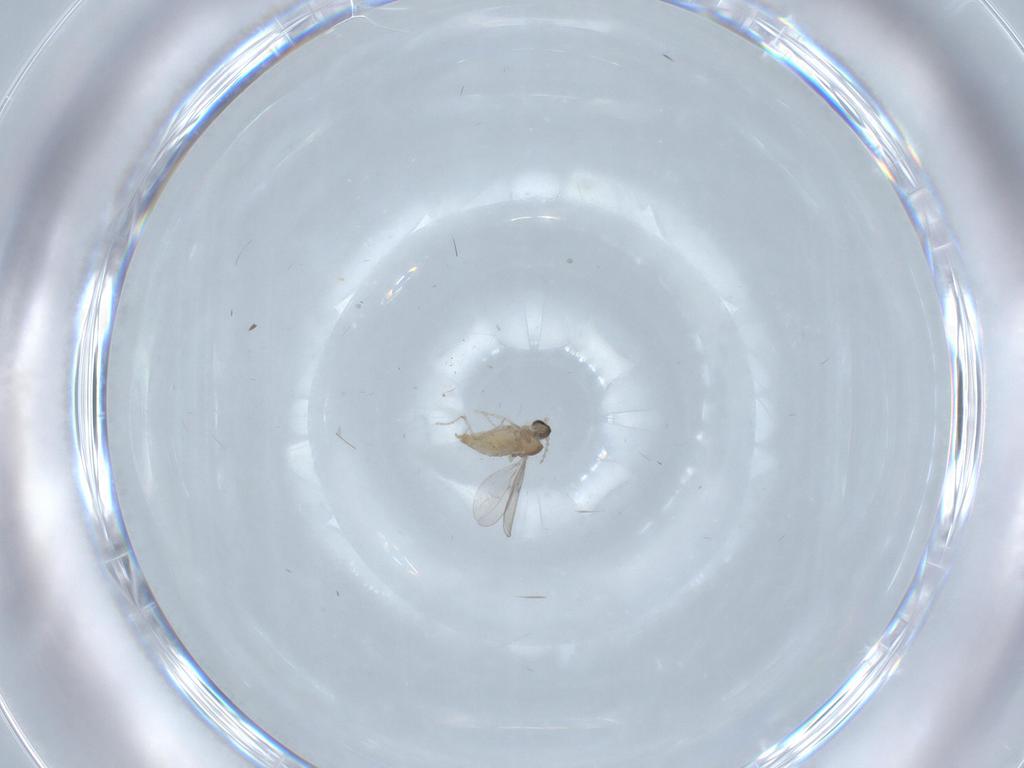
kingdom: Animalia
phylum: Arthropoda
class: Insecta
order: Diptera
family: Cecidomyiidae
